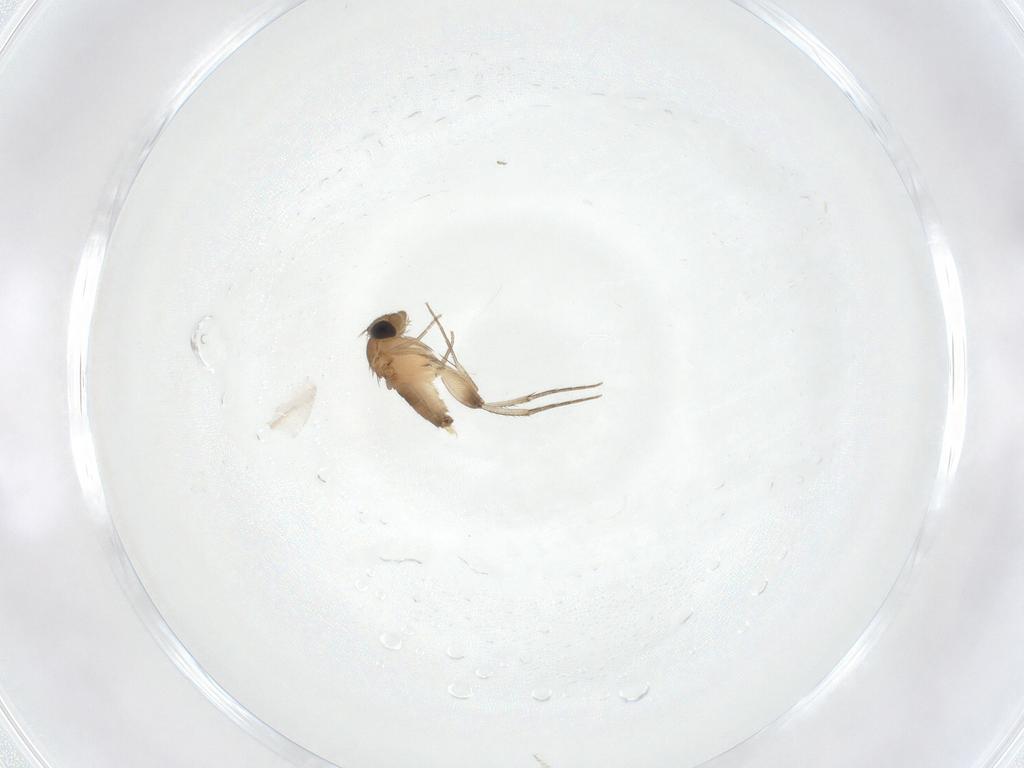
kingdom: Animalia
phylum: Arthropoda
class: Insecta
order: Diptera
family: Phoridae
